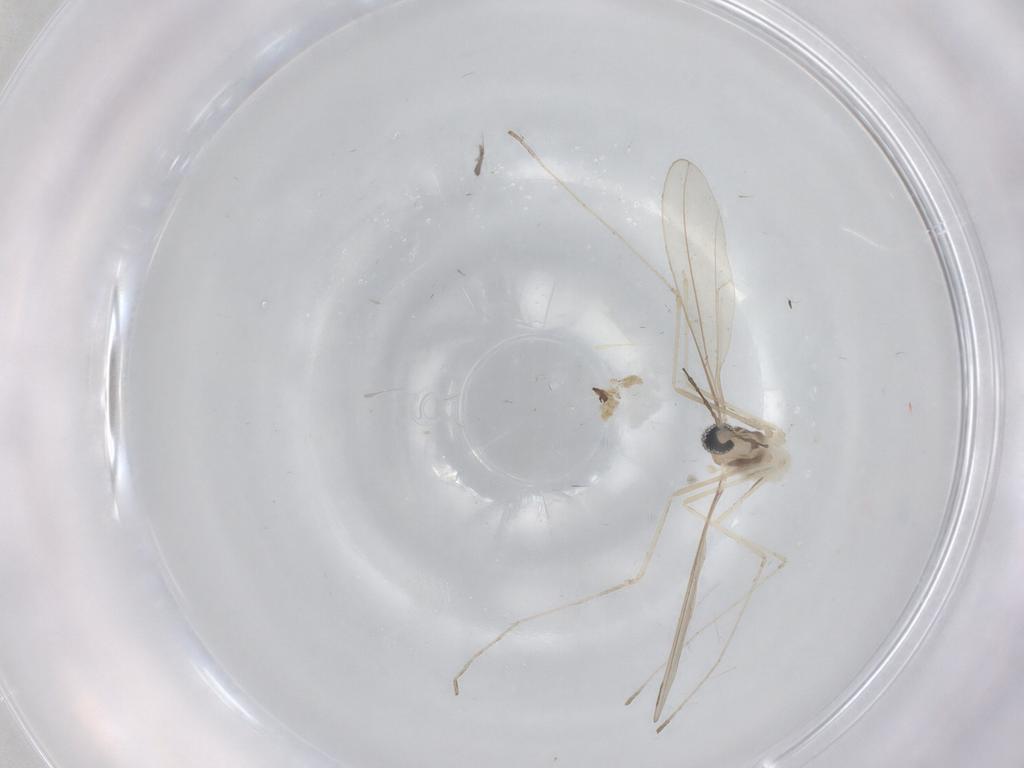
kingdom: Animalia
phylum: Arthropoda
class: Insecta
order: Diptera
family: Cecidomyiidae
